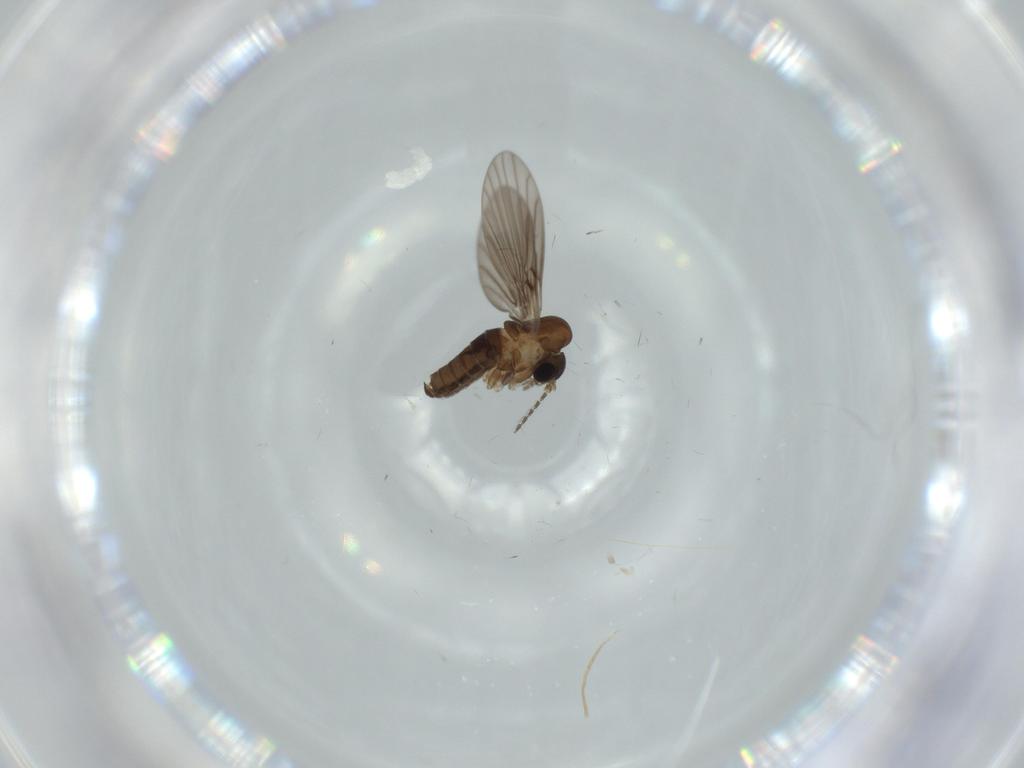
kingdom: Animalia
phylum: Arthropoda
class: Insecta
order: Diptera
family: Psychodidae
